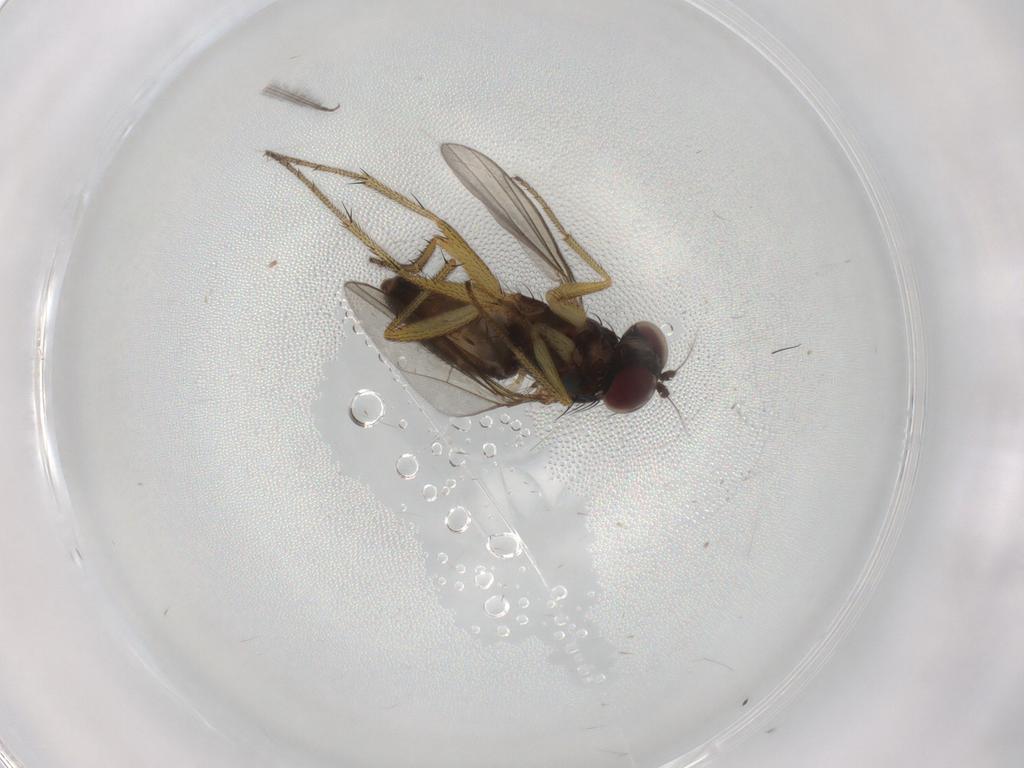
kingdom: Animalia
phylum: Arthropoda
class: Insecta
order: Diptera
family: Dolichopodidae
